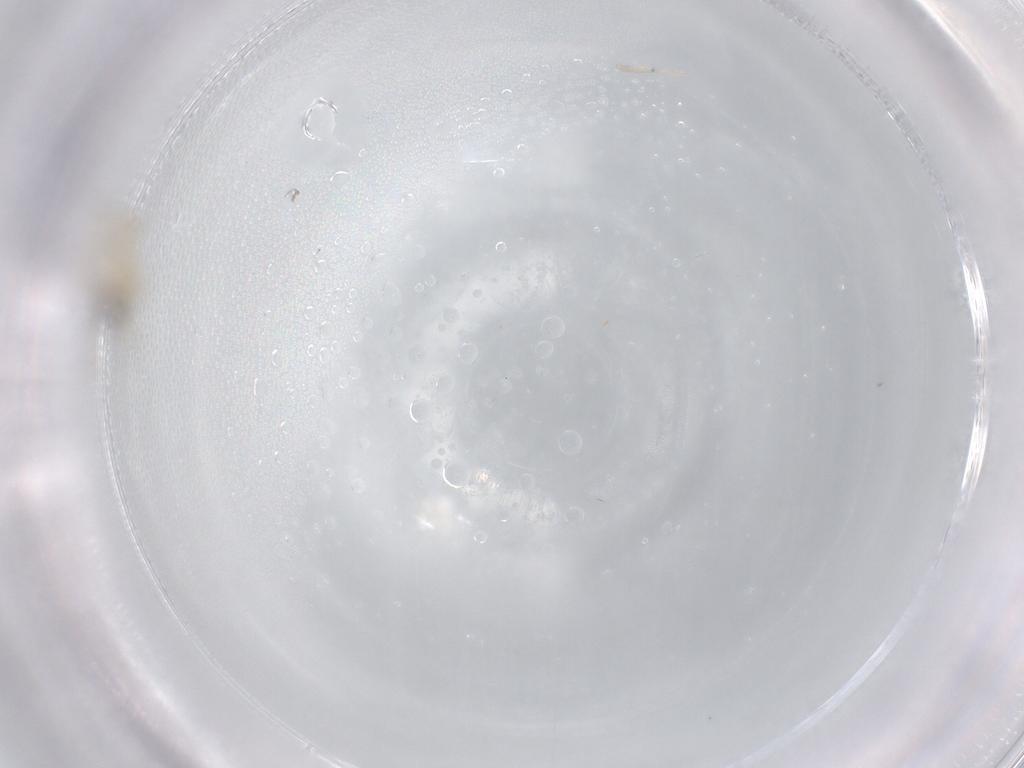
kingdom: Animalia
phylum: Arthropoda
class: Insecta
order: Diptera
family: Cecidomyiidae
